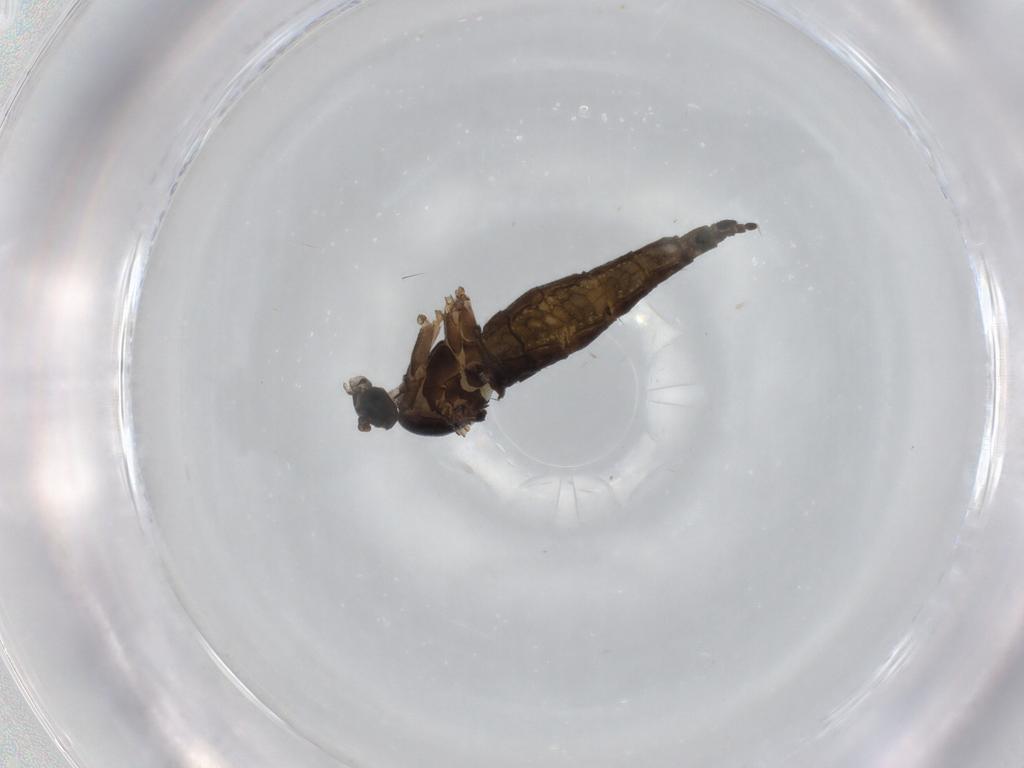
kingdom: Animalia
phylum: Arthropoda
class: Insecta
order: Diptera
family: Sciaridae
